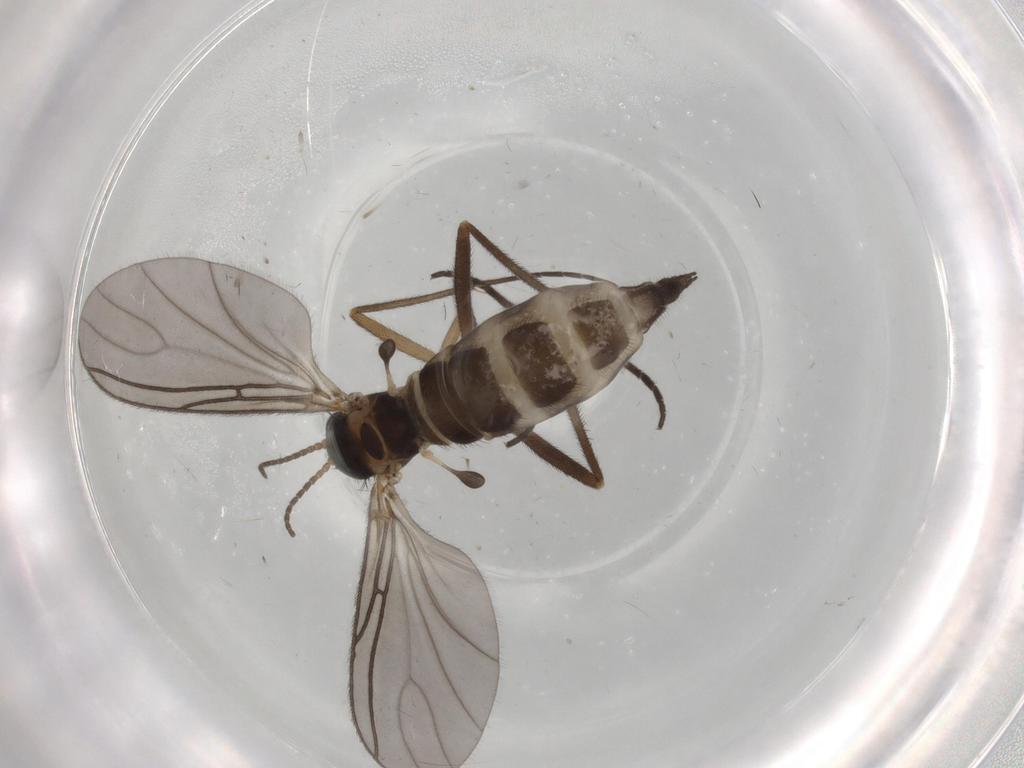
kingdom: Animalia
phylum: Arthropoda
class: Insecta
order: Diptera
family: Sciaridae
